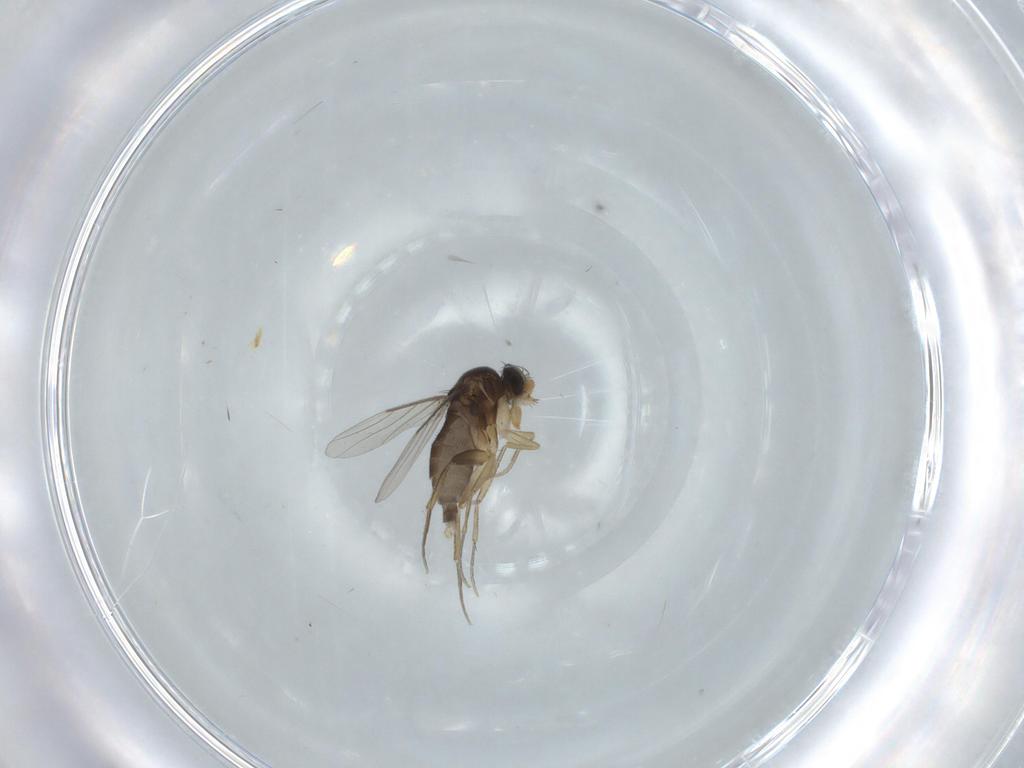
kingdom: Animalia
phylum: Arthropoda
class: Insecta
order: Diptera
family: Phoridae
